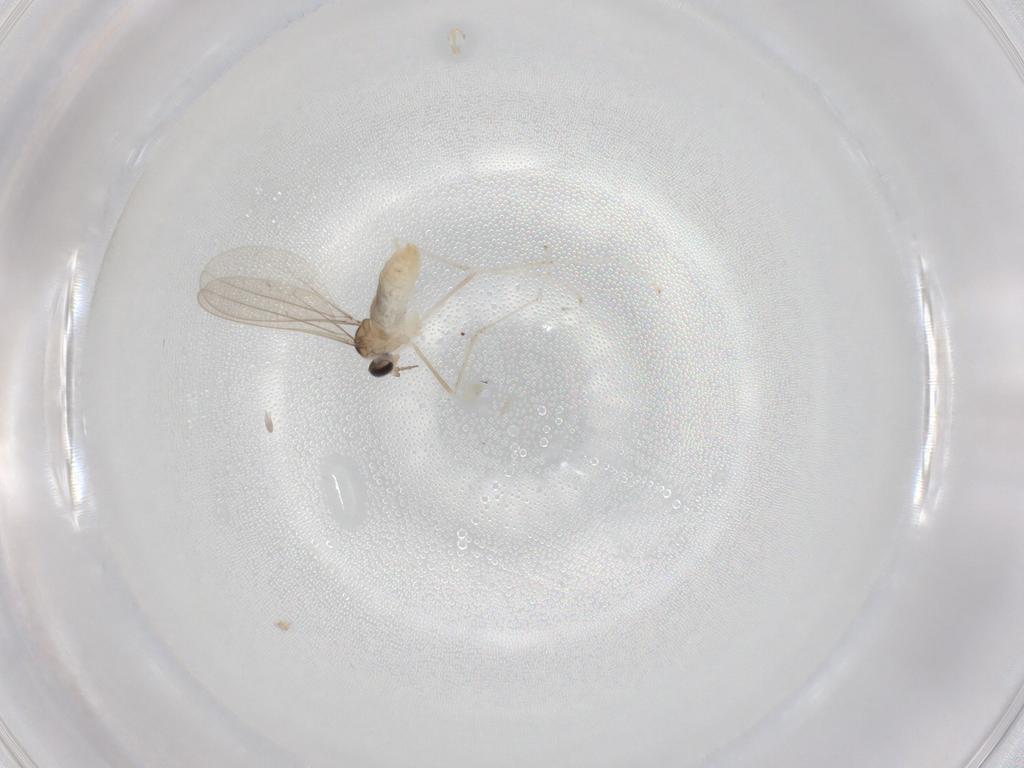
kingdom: Animalia
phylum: Arthropoda
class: Insecta
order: Diptera
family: Cecidomyiidae
